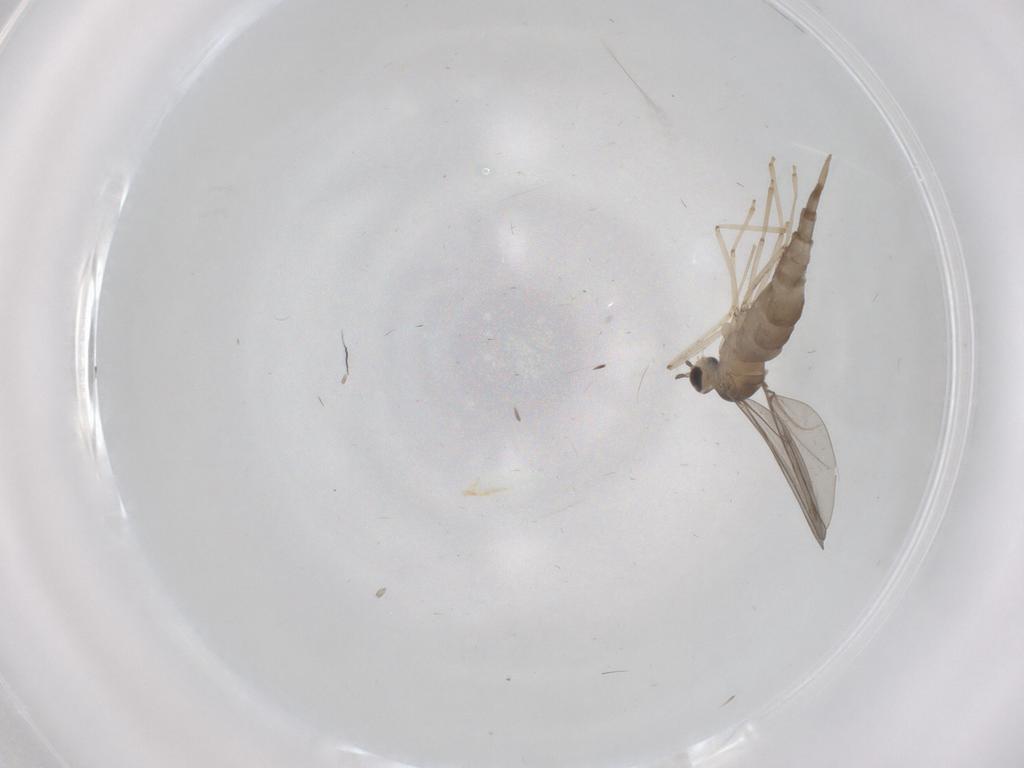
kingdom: Animalia
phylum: Arthropoda
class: Insecta
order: Diptera
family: Cecidomyiidae
